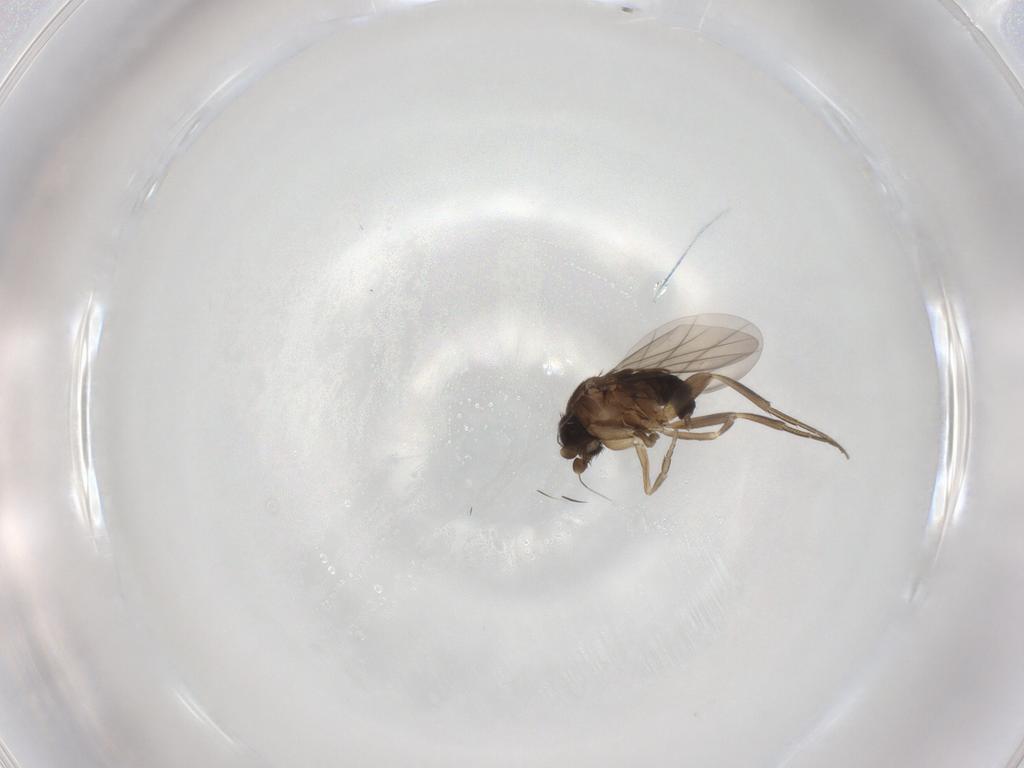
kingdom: Animalia
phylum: Arthropoda
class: Insecta
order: Diptera
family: Phoridae
